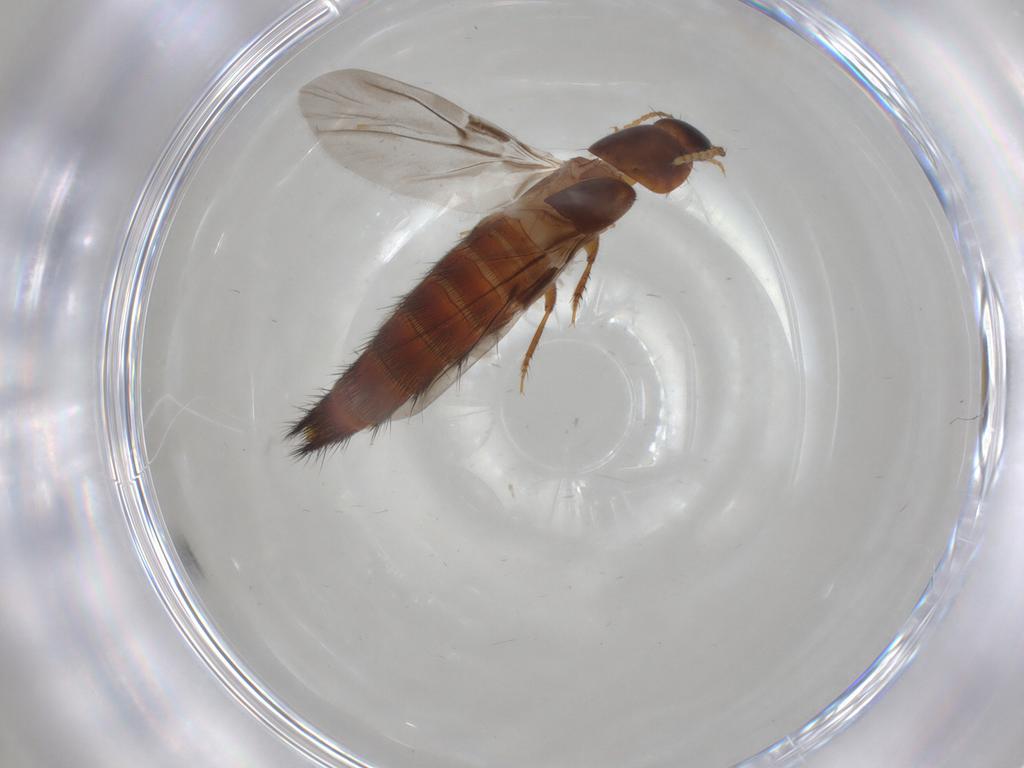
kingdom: Animalia
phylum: Arthropoda
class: Insecta
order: Coleoptera
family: Staphylinidae
